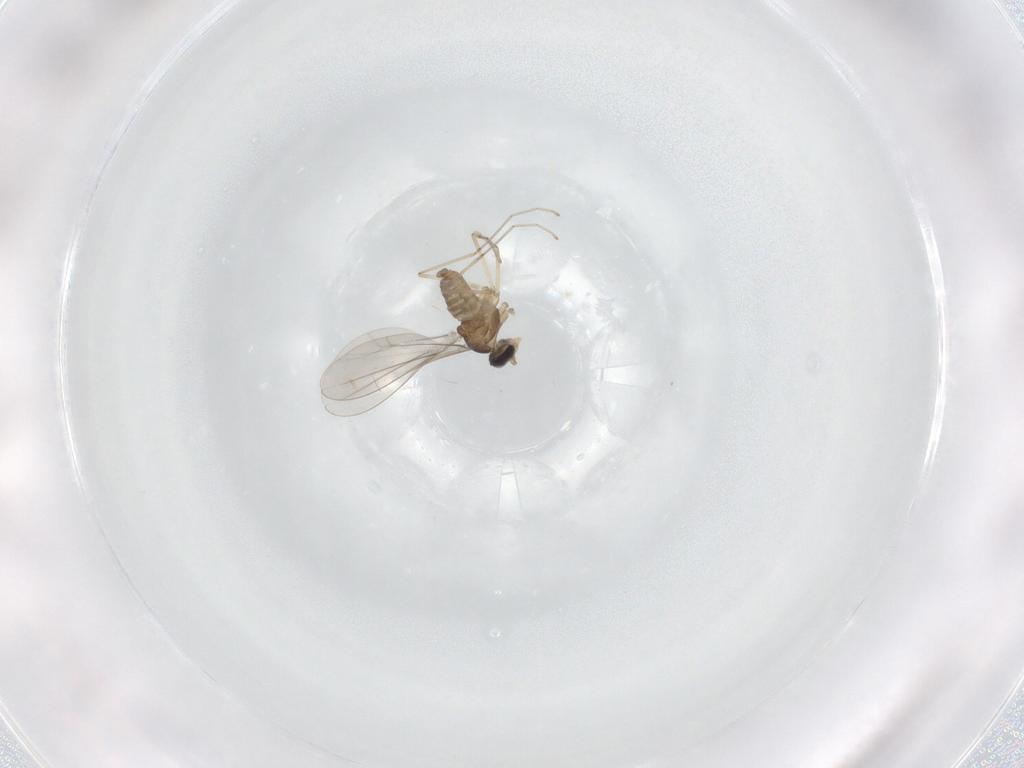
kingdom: Animalia
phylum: Arthropoda
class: Insecta
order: Diptera
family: Cecidomyiidae
